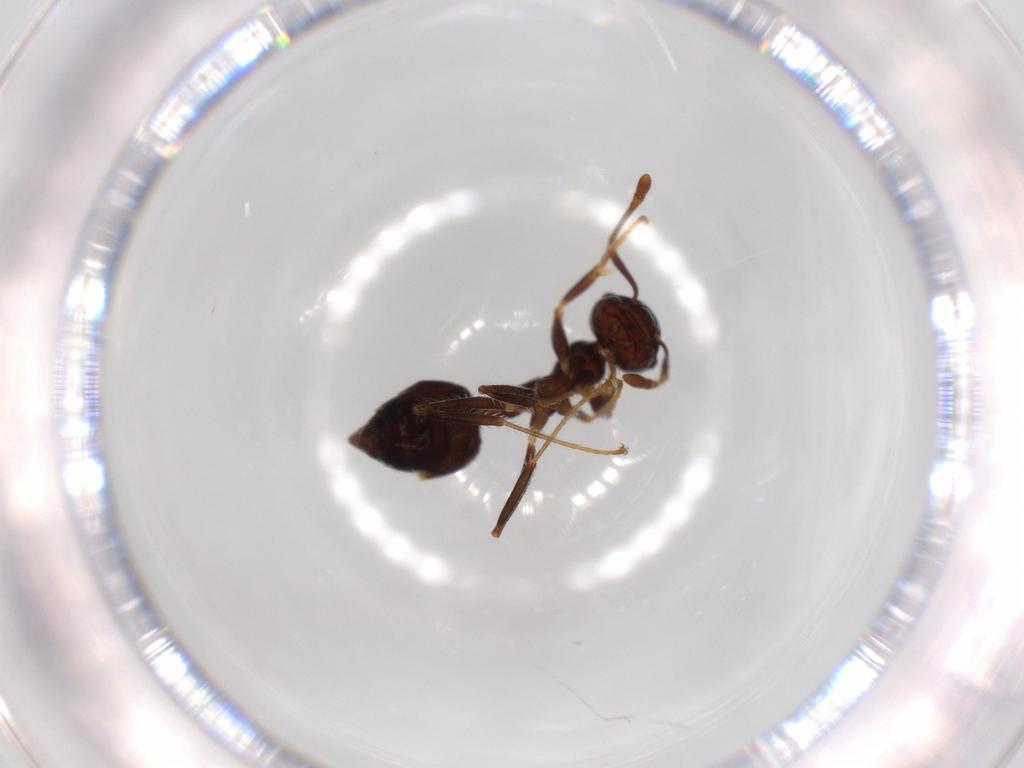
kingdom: Animalia
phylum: Arthropoda
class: Insecta
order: Hymenoptera
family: Formicidae
